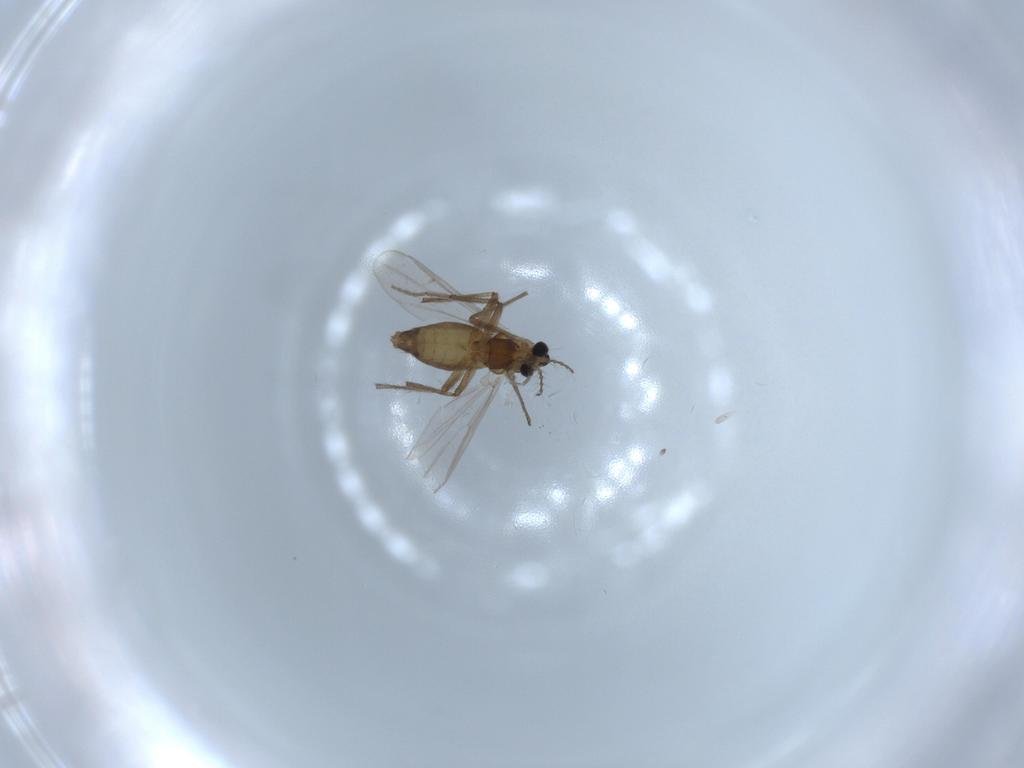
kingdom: Animalia
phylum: Arthropoda
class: Insecta
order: Diptera
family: Chironomidae
